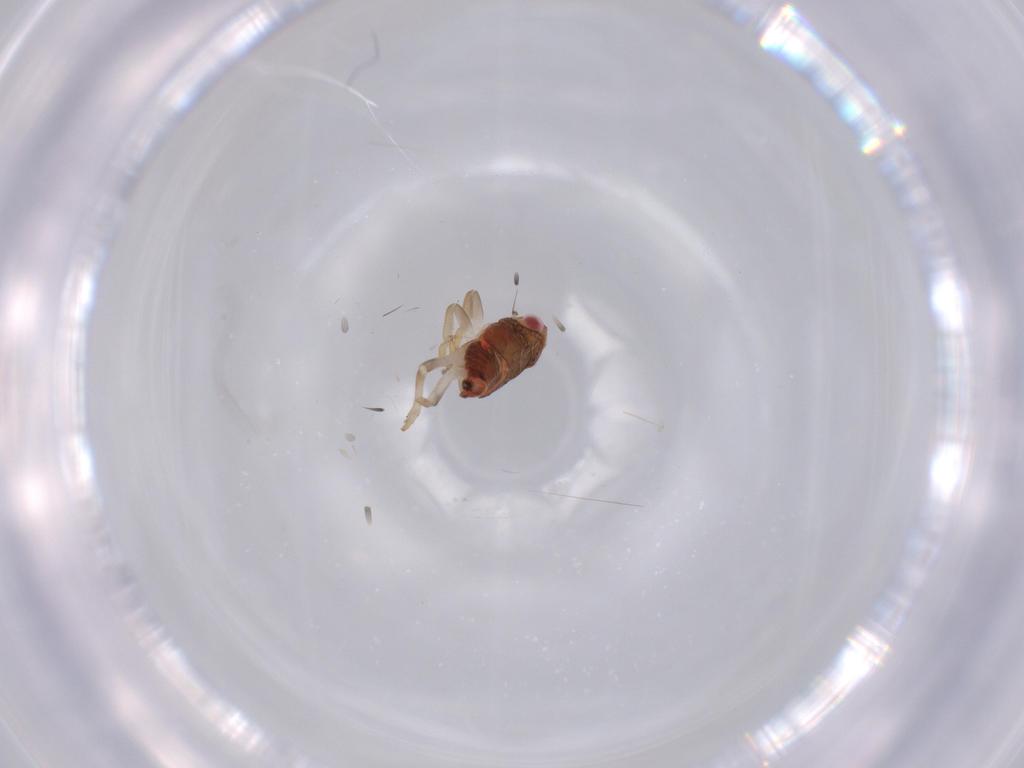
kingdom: Animalia
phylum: Arthropoda
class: Insecta
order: Hemiptera
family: Issidae
